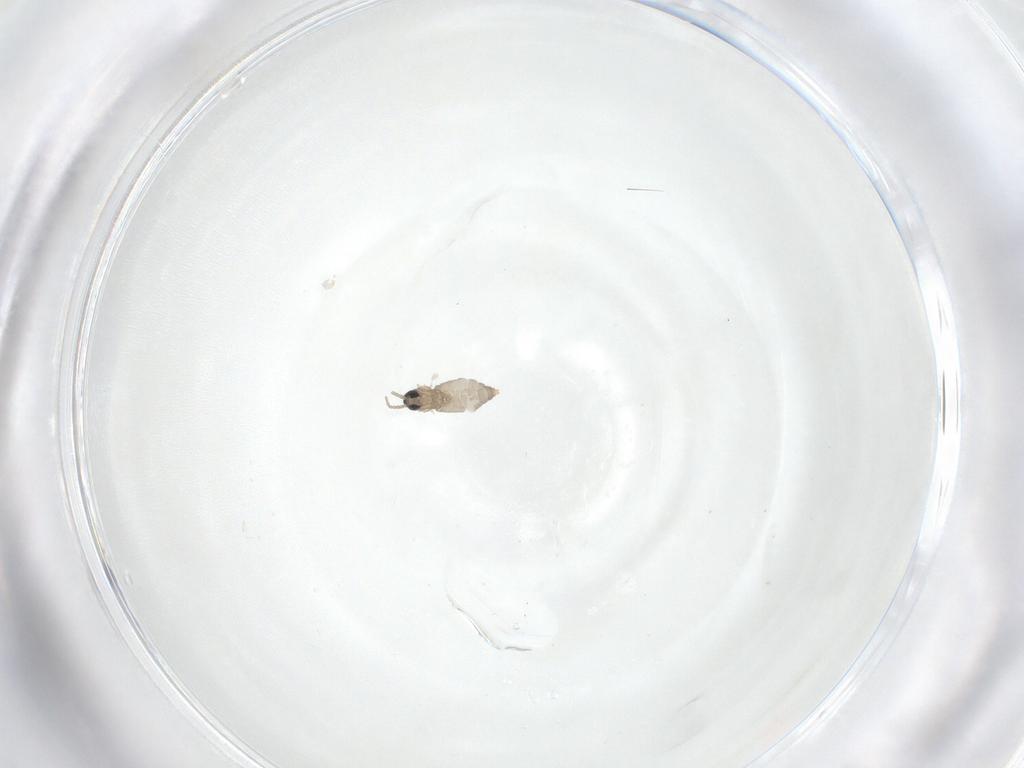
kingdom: Animalia
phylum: Arthropoda
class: Insecta
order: Diptera
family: Cecidomyiidae
